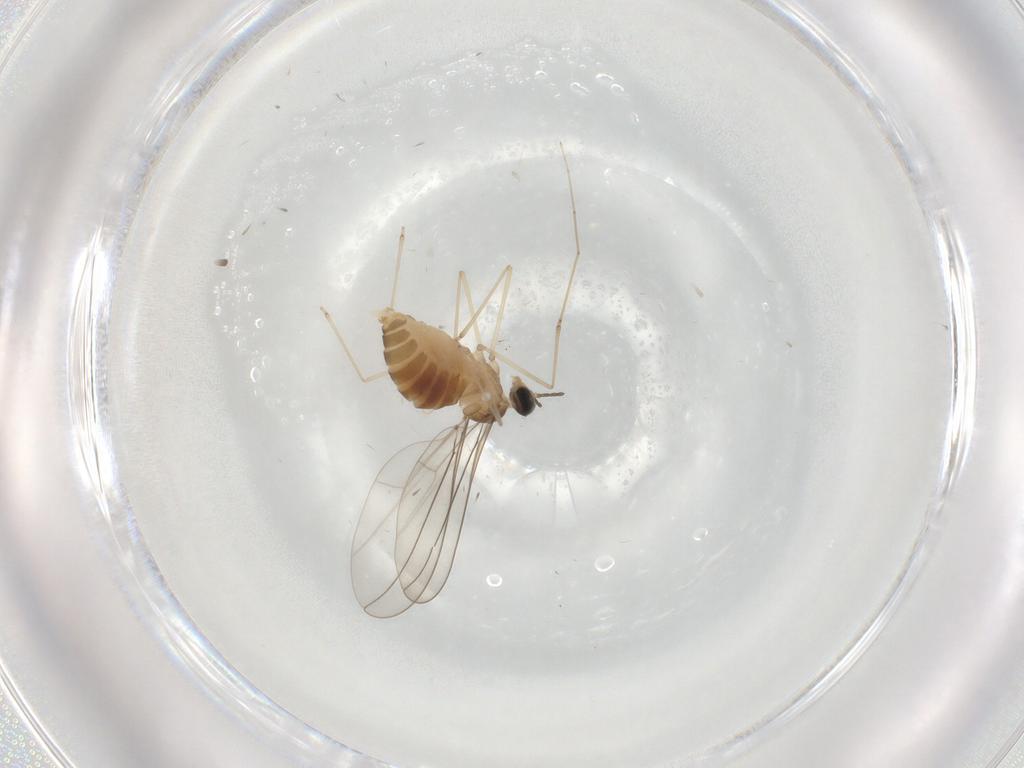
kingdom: Animalia
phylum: Arthropoda
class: Insecta
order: Diptera
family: Cecidomyiidae
